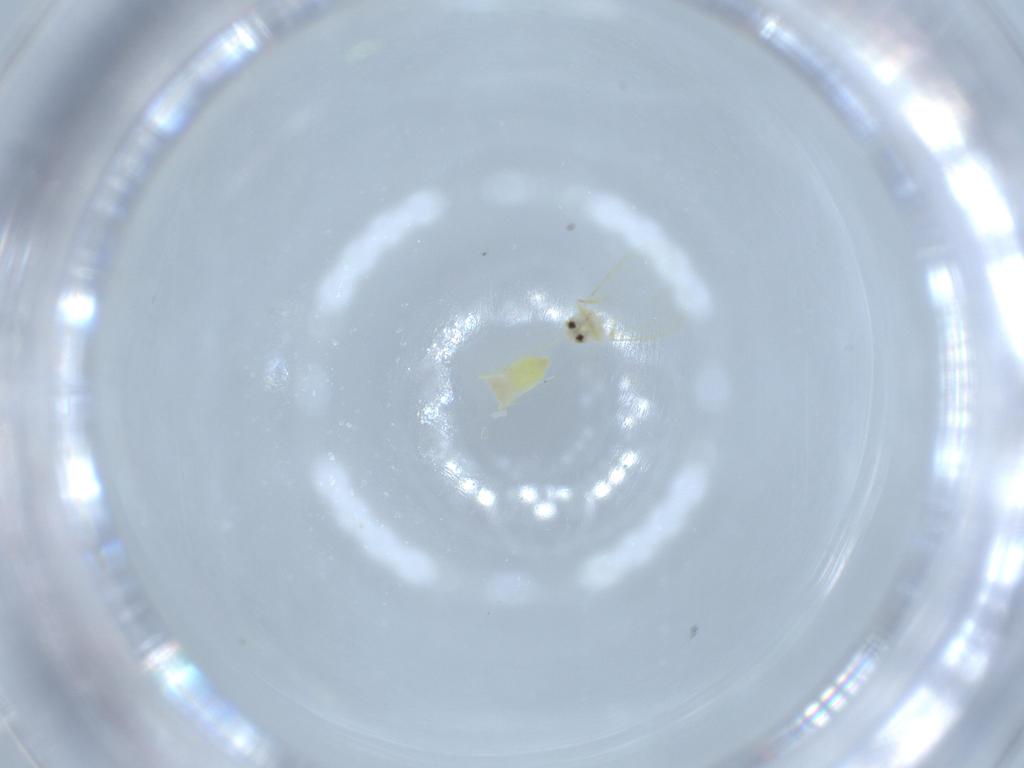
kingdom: Animalia
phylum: Arthropoda
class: Insecta
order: Hemiptera
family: Aleyrodidae
